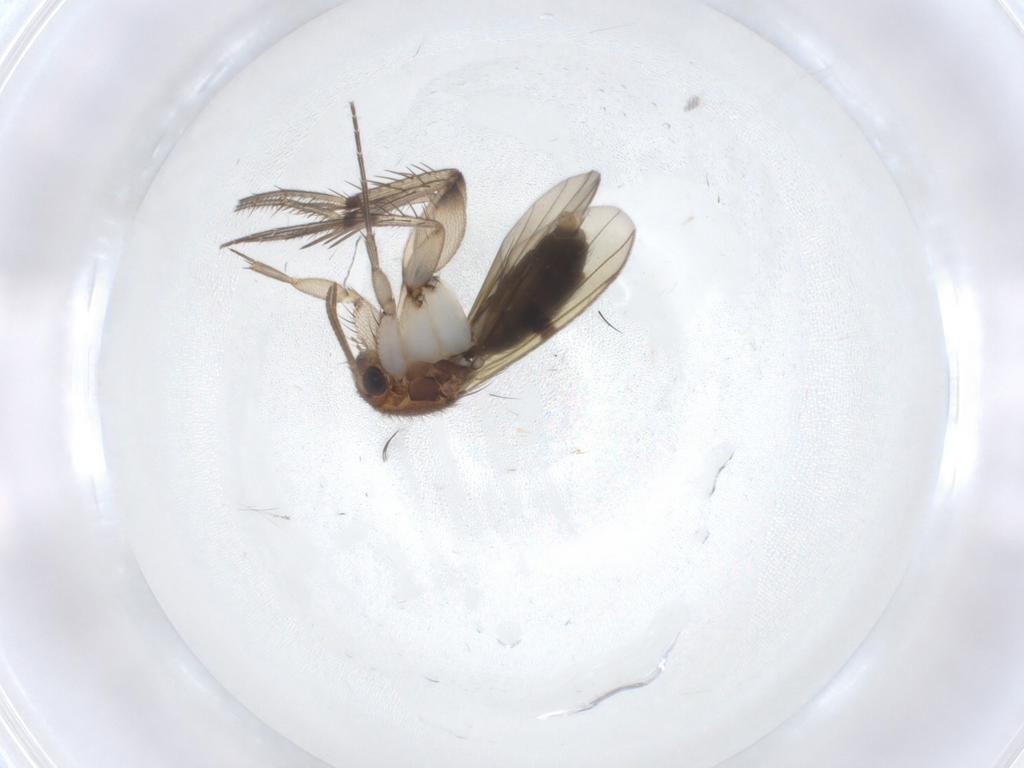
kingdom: Animalia
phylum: Arthropoda
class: Insecta
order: Diptera
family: Mycetophilidae
